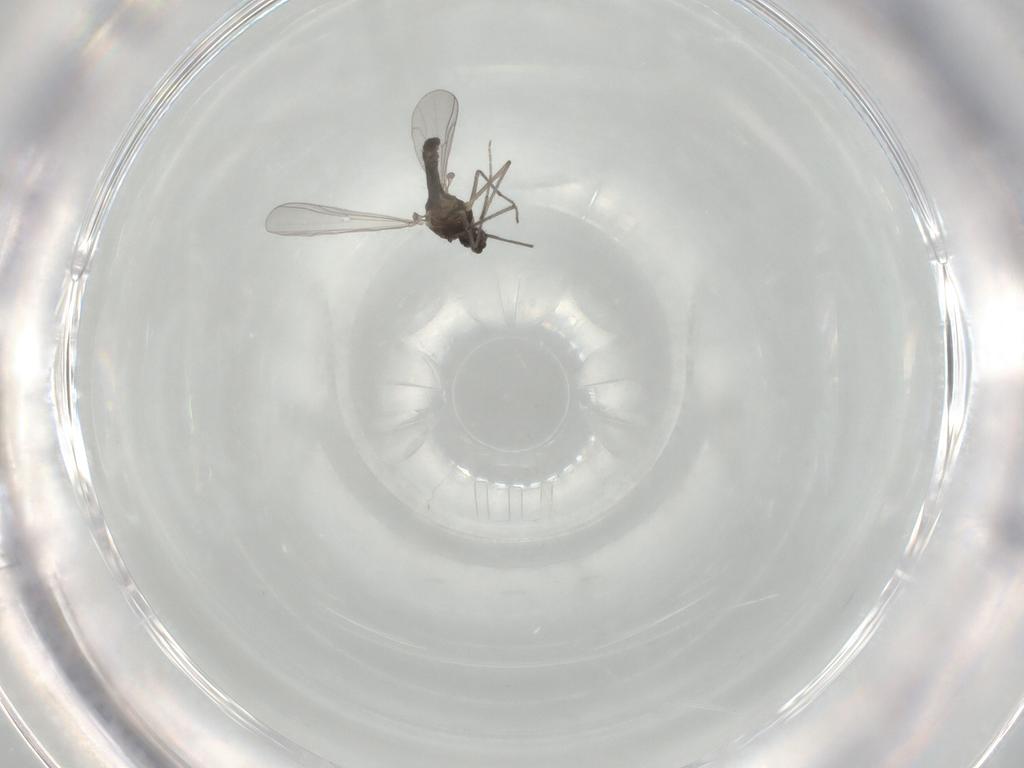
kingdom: Animalia
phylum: Arthropoda
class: Insecta
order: Diptera
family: Chironomidae
